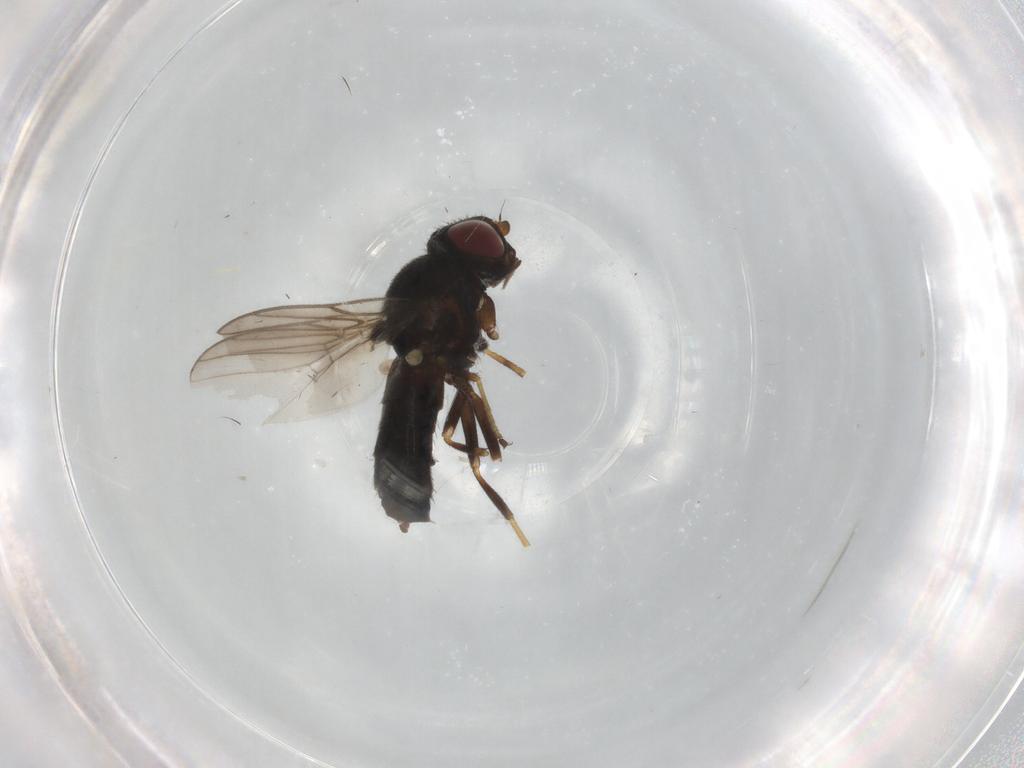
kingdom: Animalia
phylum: Arthropoda
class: Insecta
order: Diptera
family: Chloropidae
